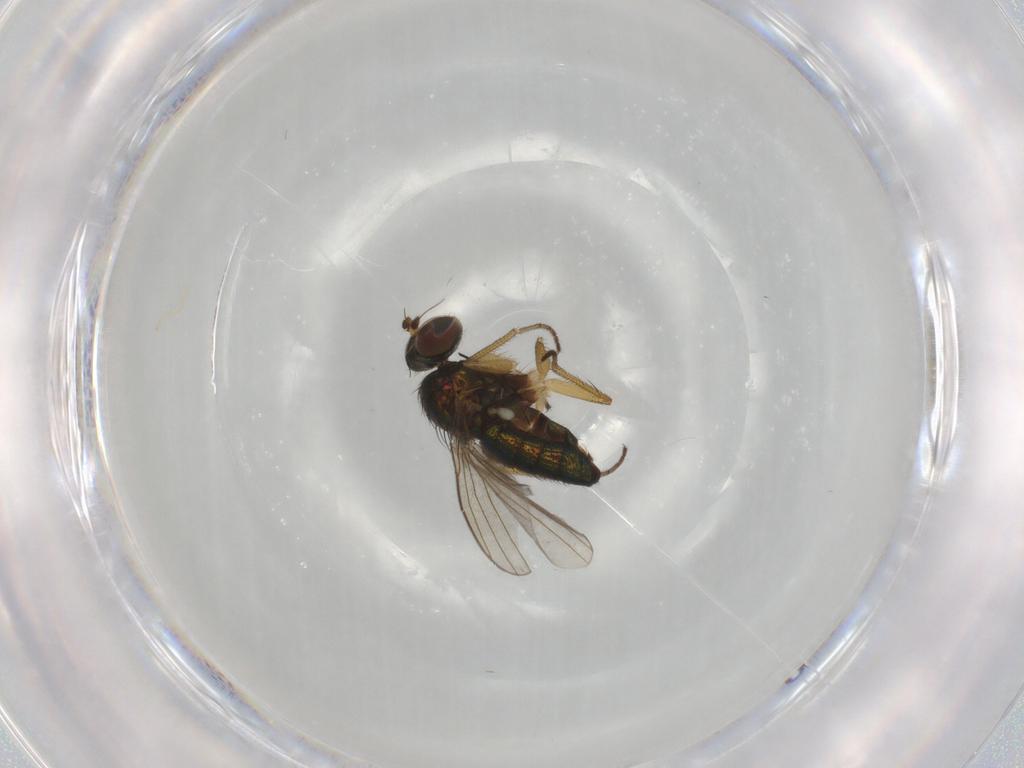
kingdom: Animalia
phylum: Arthropoda
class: Insecta
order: Diptera
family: Dolichopodidae
